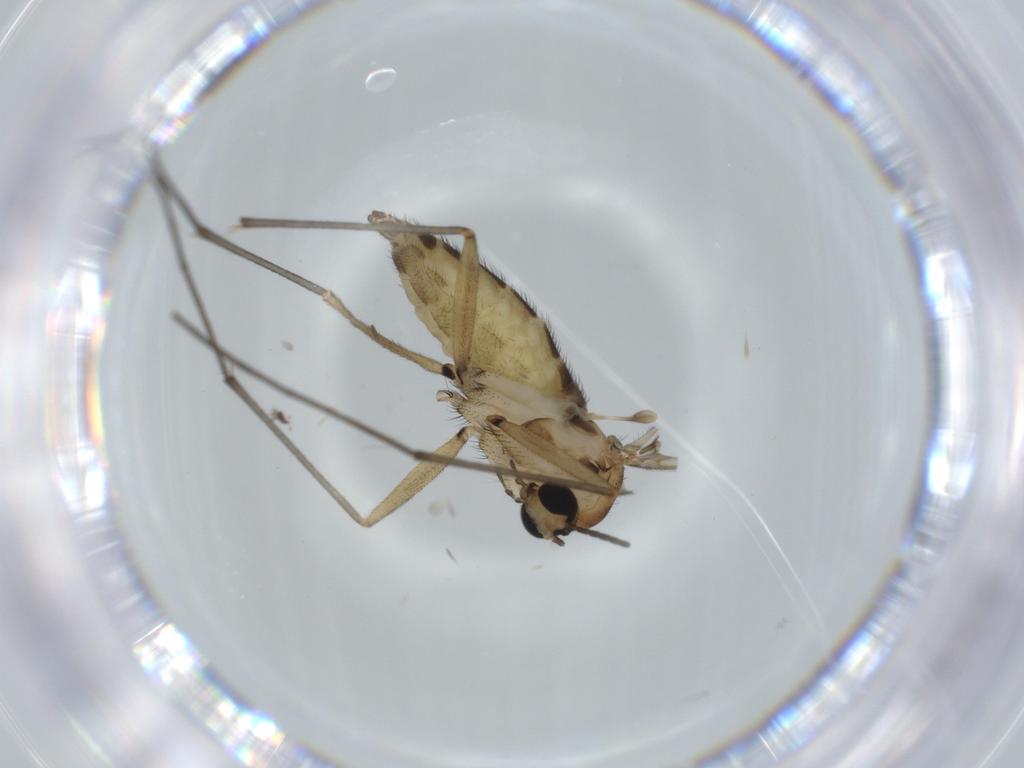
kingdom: Animalia
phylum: Arthropoda
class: Insecta
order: Diptera
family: Sciaridae
